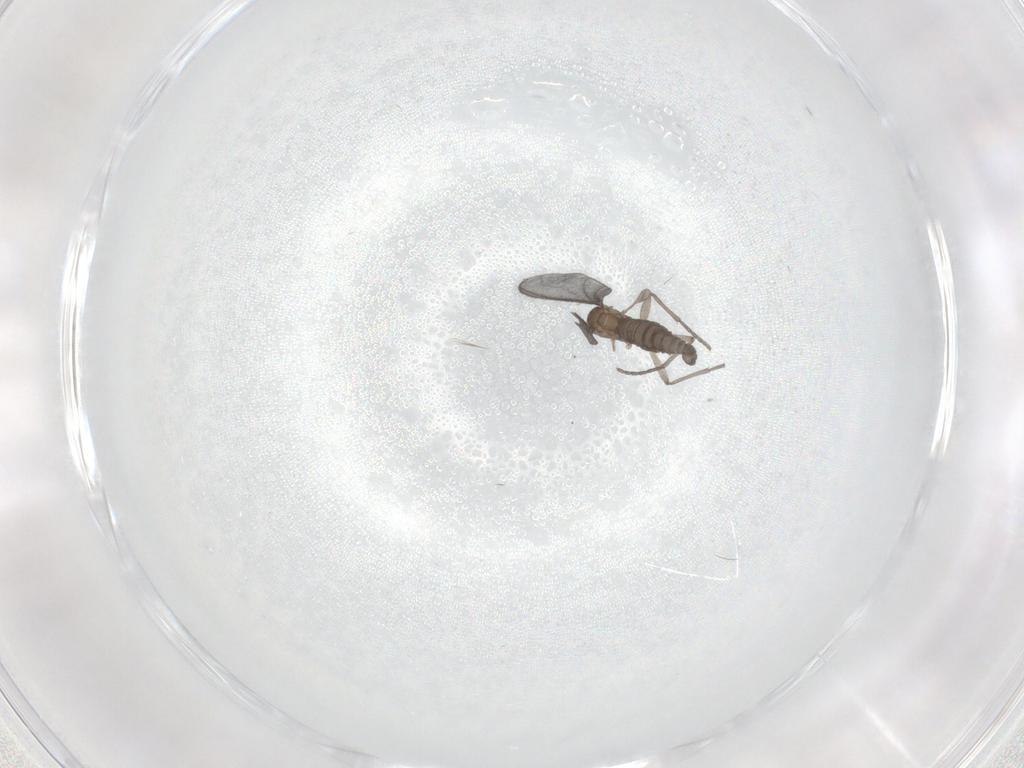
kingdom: Animalia
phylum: Arthropoda
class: Insecta
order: Diptera
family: Sciaridae
